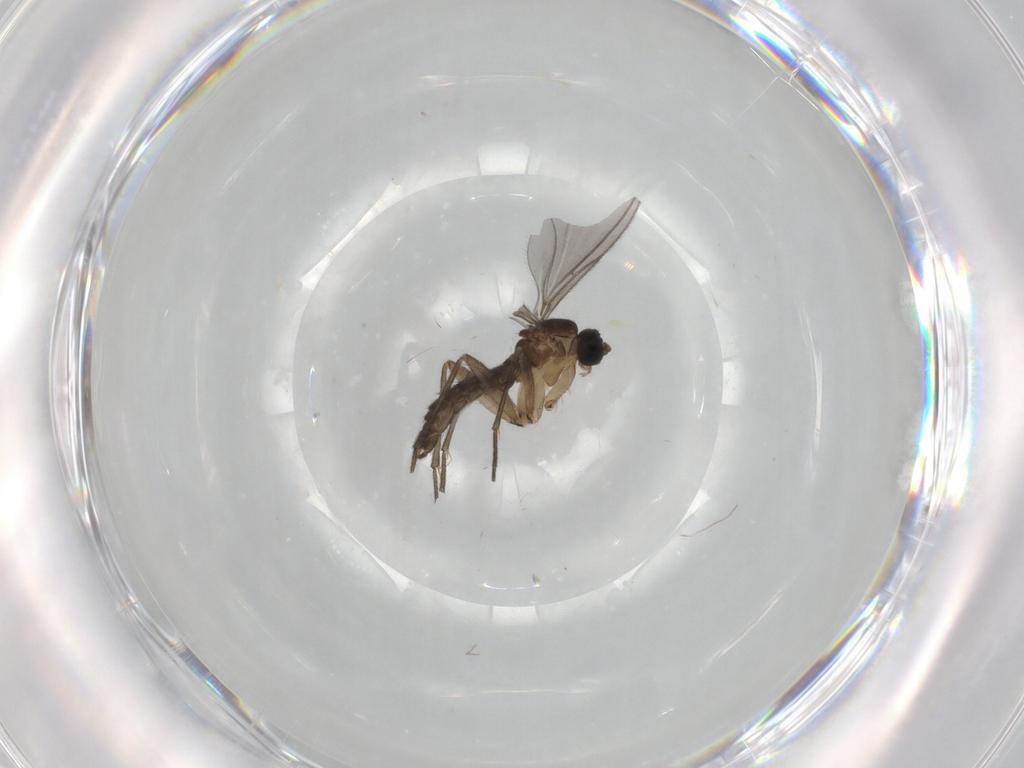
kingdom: Animalia
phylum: Arthropoda
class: Insecta
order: Diptera
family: Sciaridae
